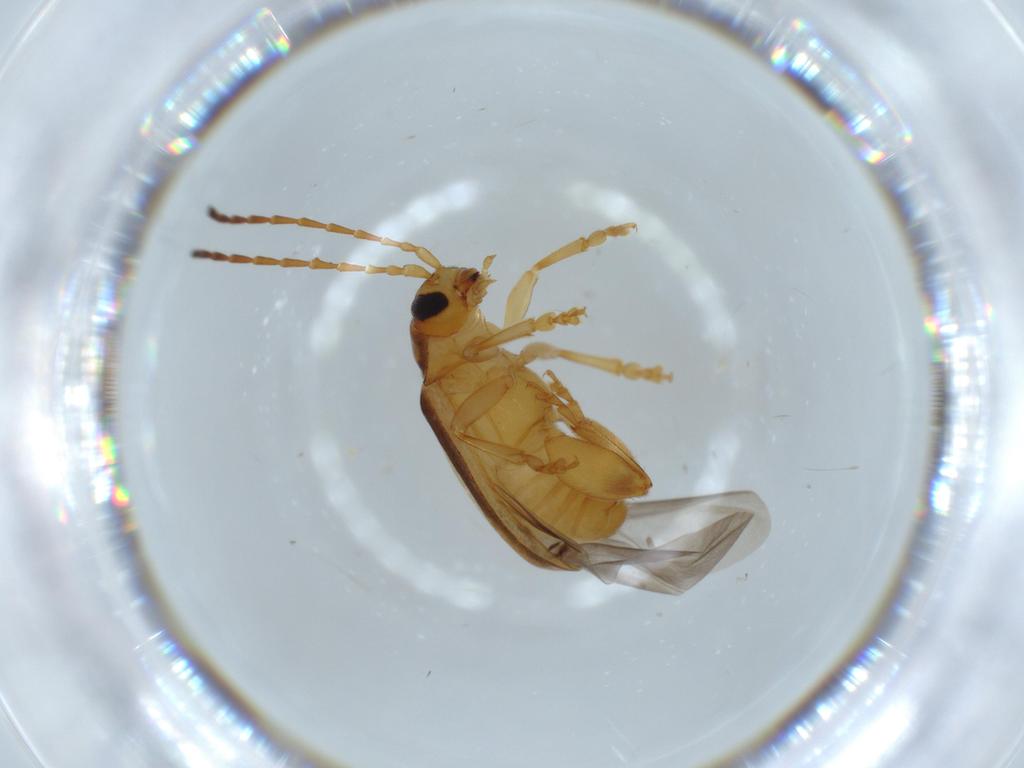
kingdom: Animalia
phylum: Arthropoda
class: Insecta
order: Coleoptera
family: Chrysomelidae
